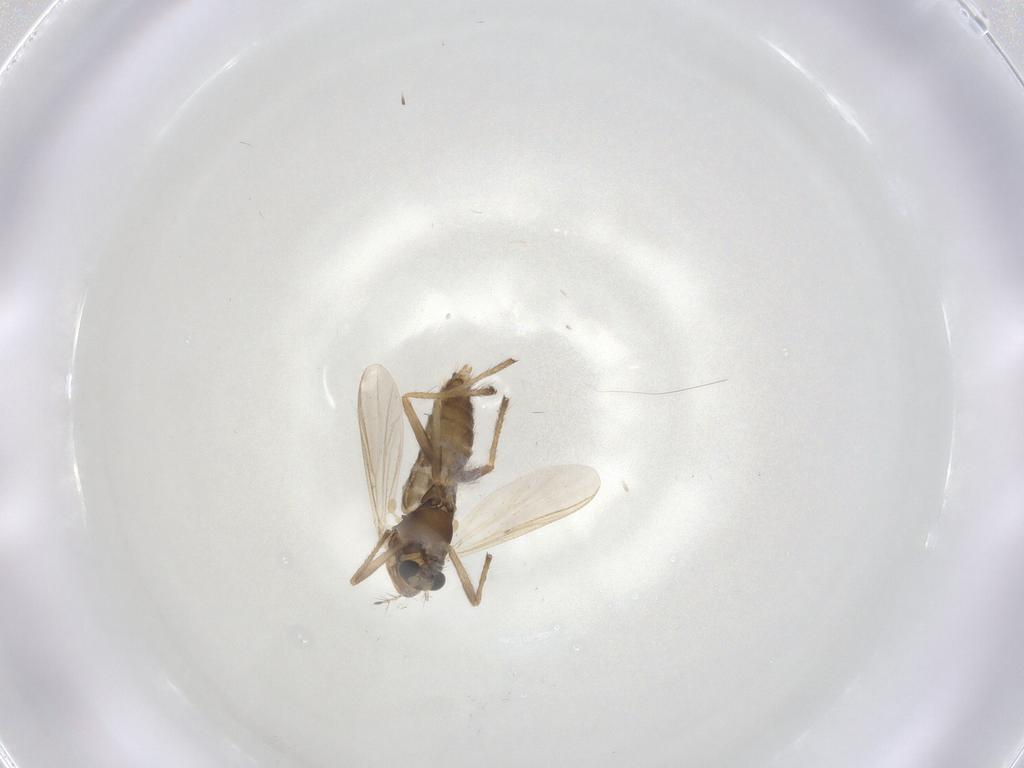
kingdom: Animalia
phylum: Arthropoda
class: Insecta
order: Diptera
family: Chironomidae
